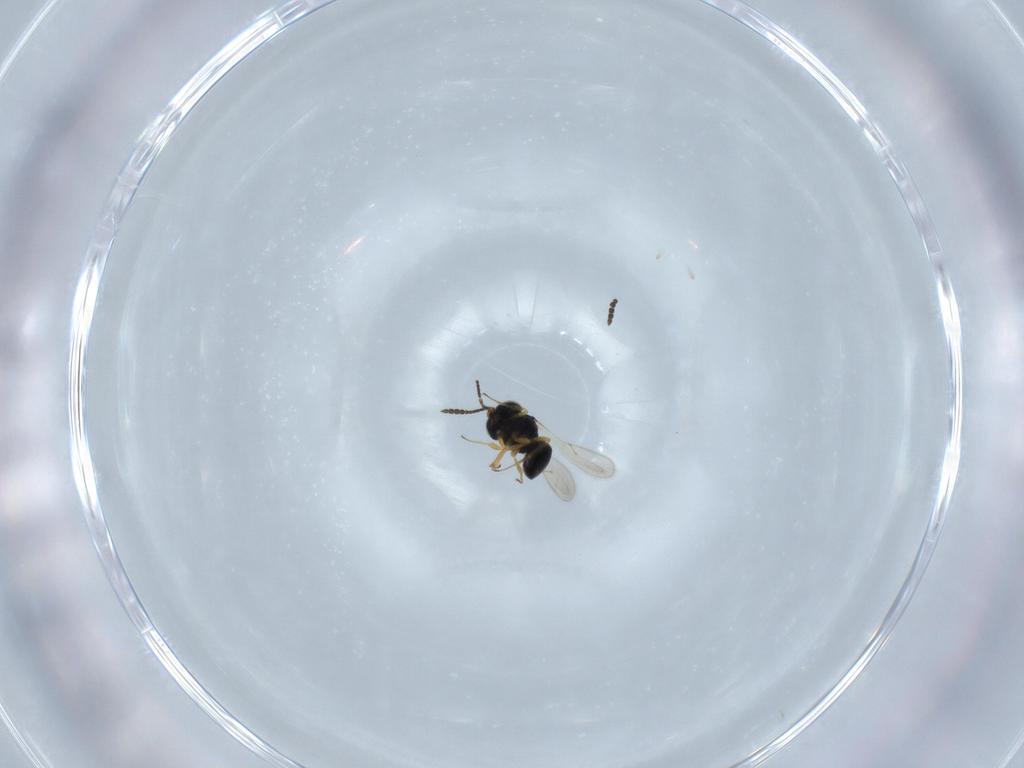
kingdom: Animalia
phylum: Arthropoda
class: Insecta
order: Hymenoptera
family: Scelionidae
